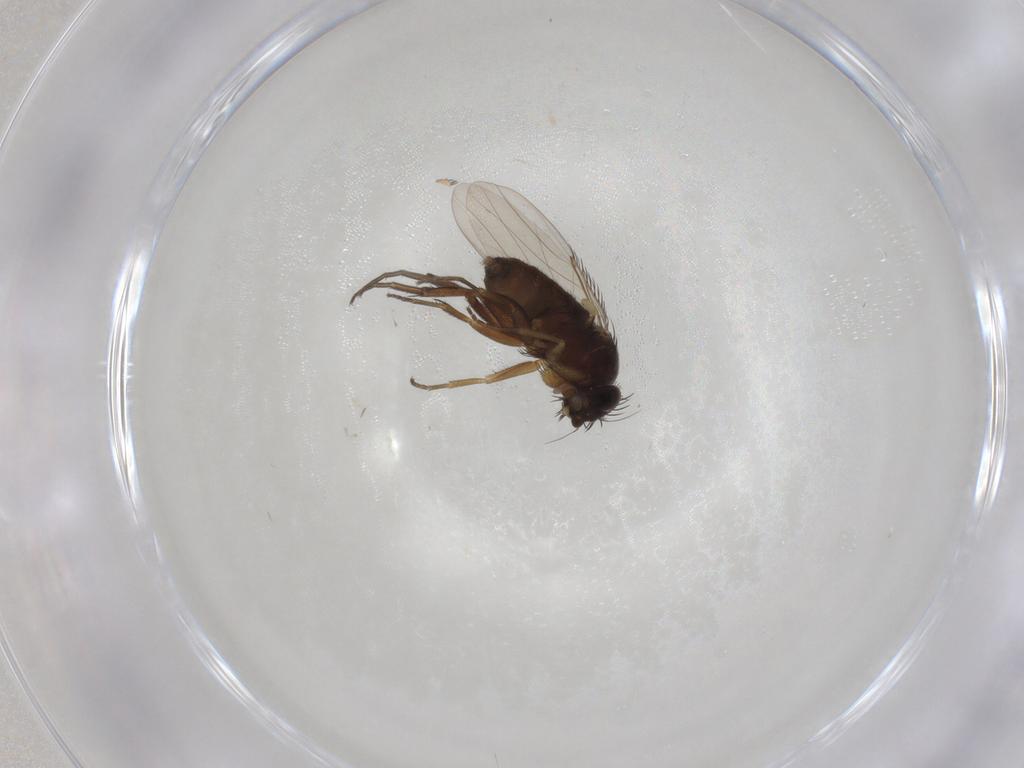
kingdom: Animalia
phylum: Arthropoda
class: Insecta
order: Diptera
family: Phoridae
